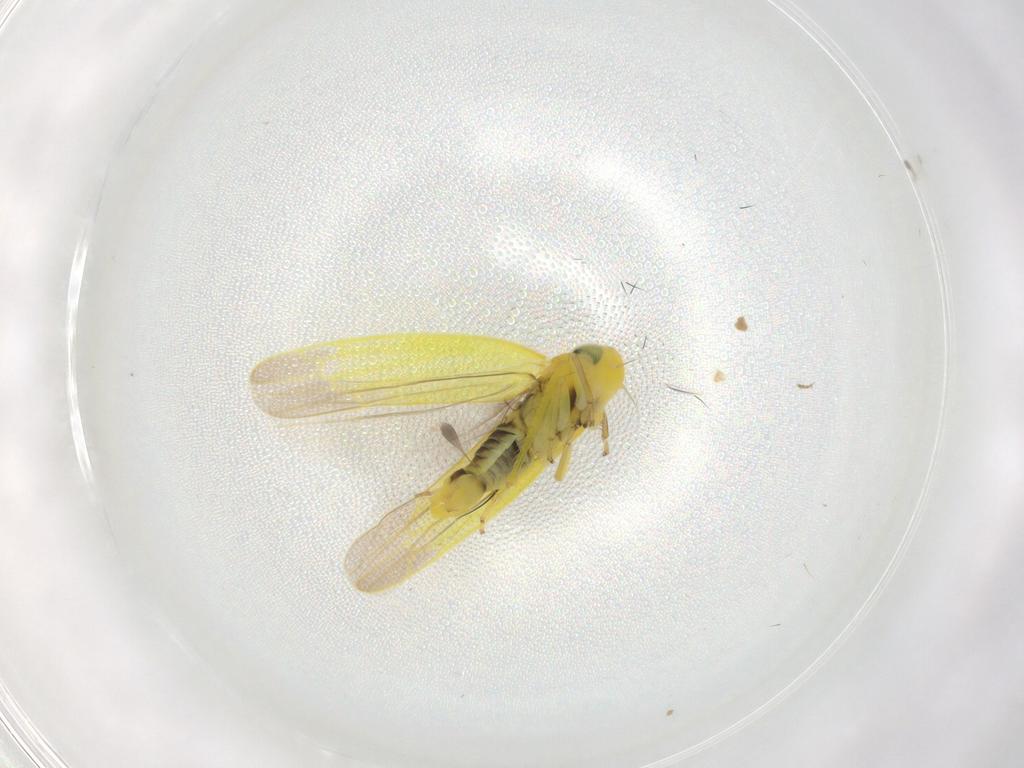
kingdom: Animalia
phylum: Arthropoda
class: Insecta
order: Hemiptera
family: Cicadellidae
